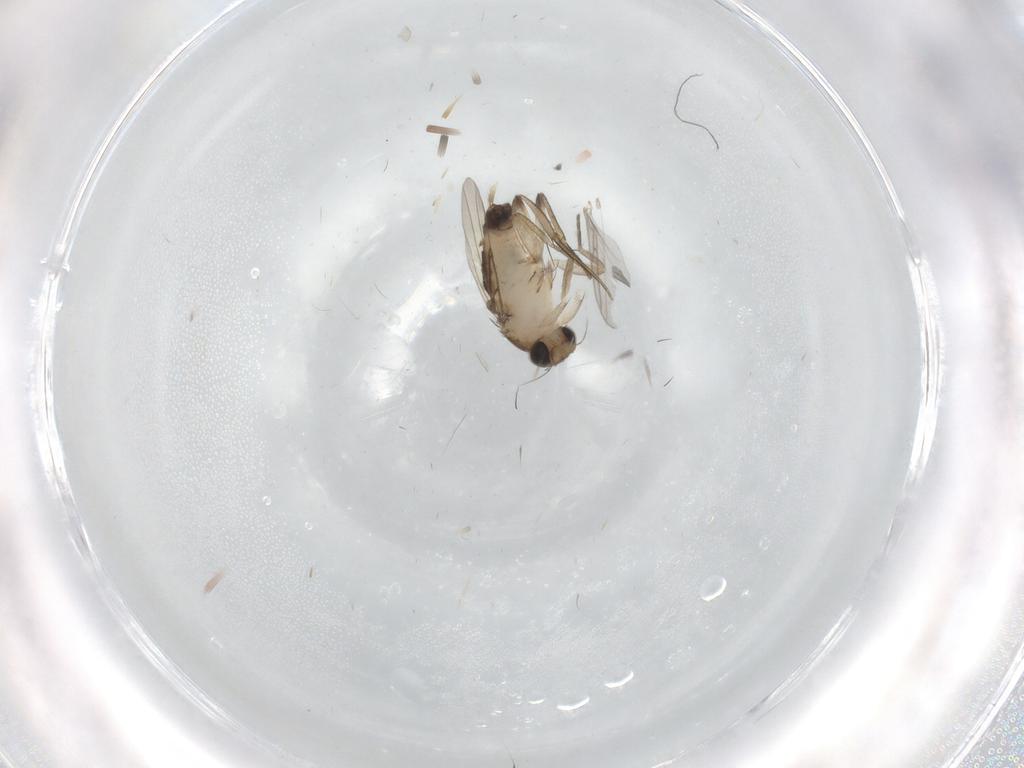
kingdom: Animalia
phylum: Arthropoda
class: Insecta
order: Diptera
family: Phoridae
